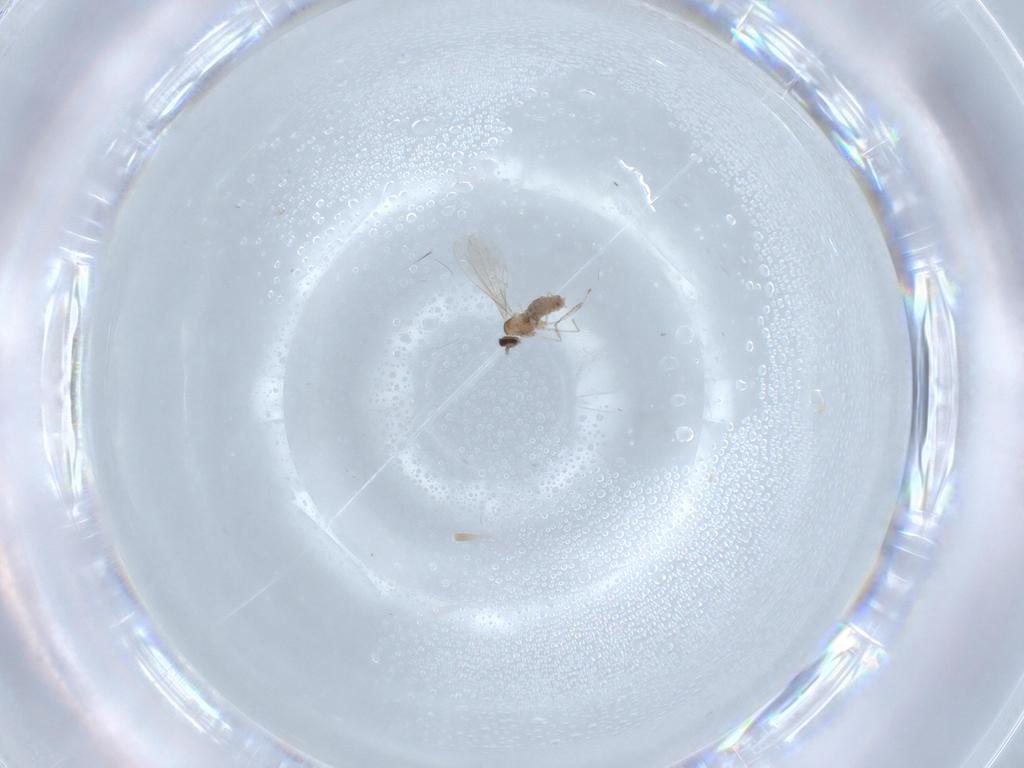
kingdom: Animalia
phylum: Arthropoda
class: Insecta
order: Diptera
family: Cecidomyiidae
